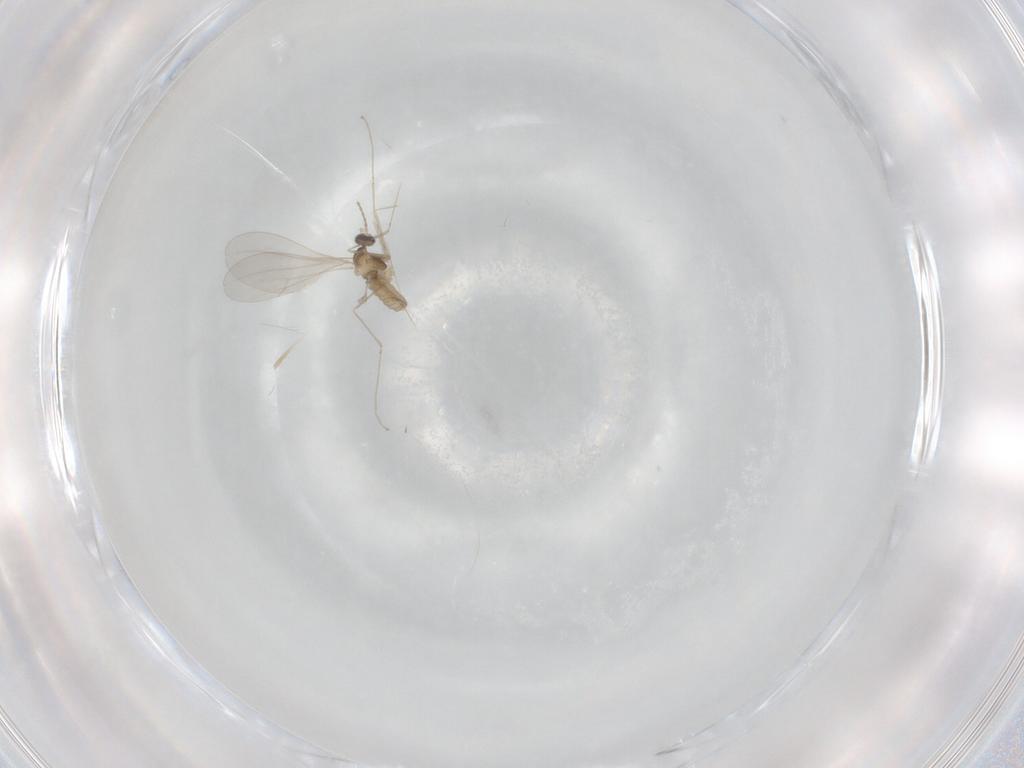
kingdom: Animalia
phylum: Arthropoda
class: Insecta
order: Diptera
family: Cecidomyiidae
